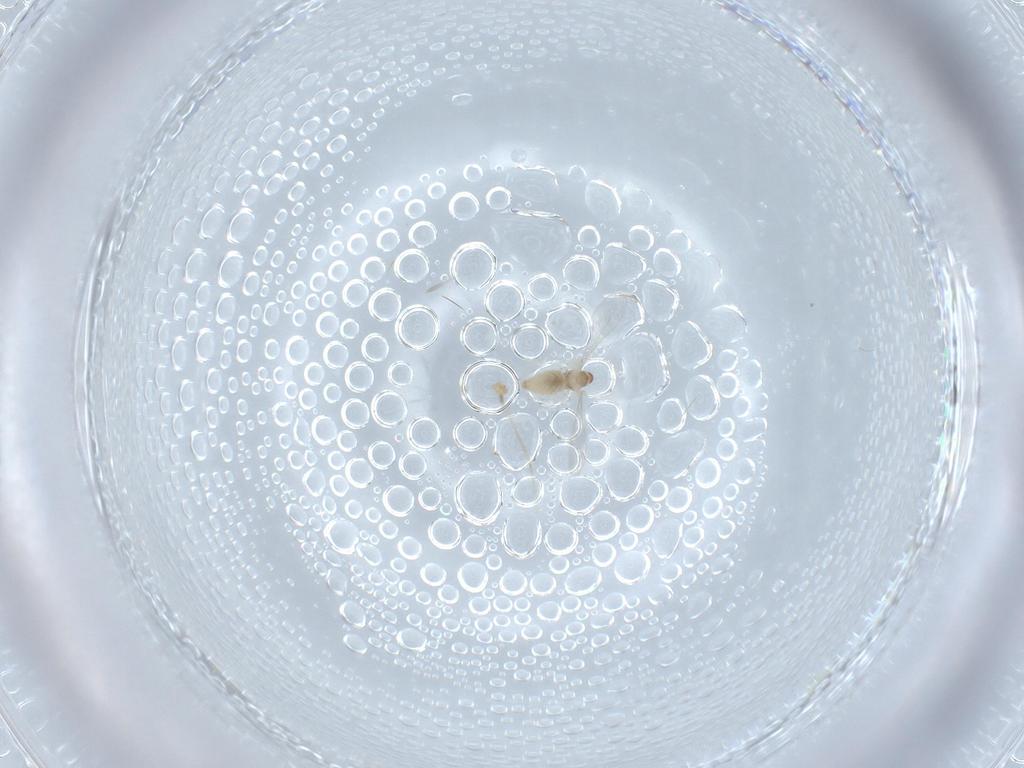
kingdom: Animalia
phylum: Arthropoda
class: Insecta
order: Diptera
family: Cecidomyiidae
